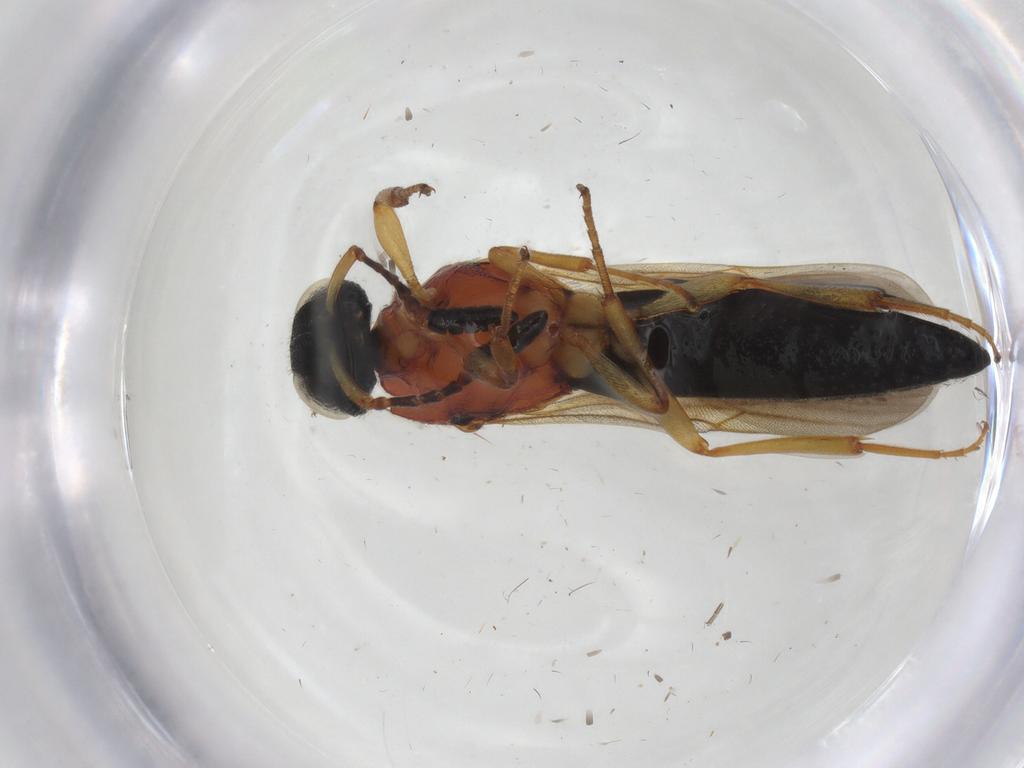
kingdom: Animalia
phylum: Arthropoda
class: Insecta
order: Hymenoptera
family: Scelionidae
